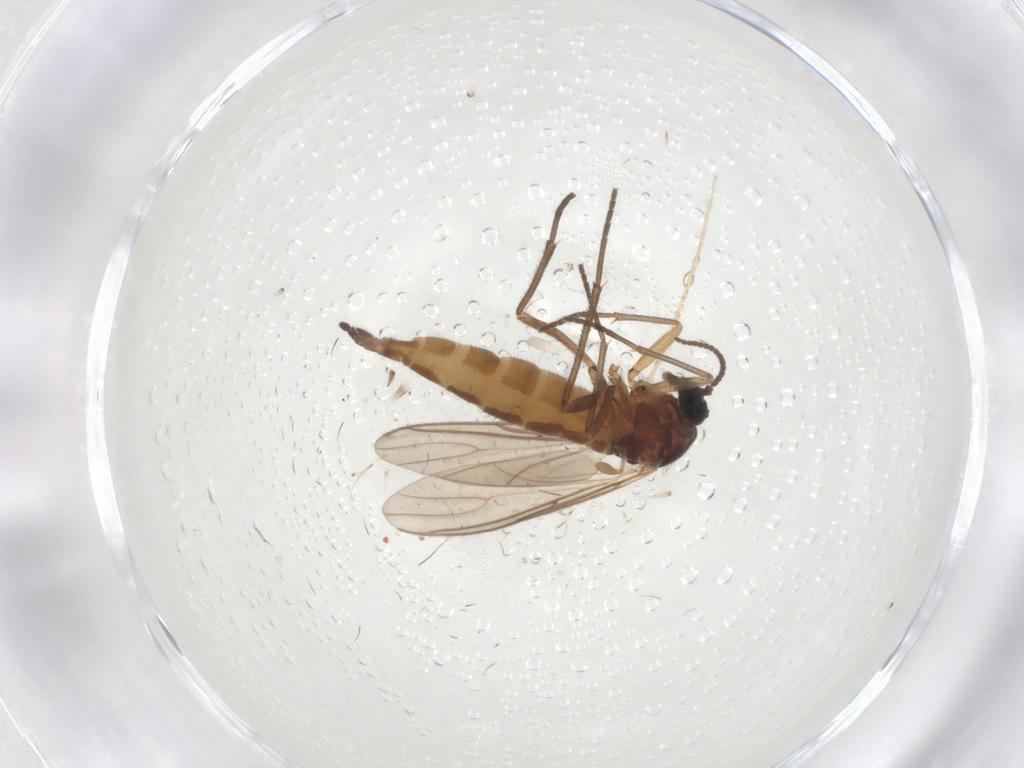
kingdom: Animalia
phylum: Arthropoda
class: Insecta
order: Diptera
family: Sciaridae
